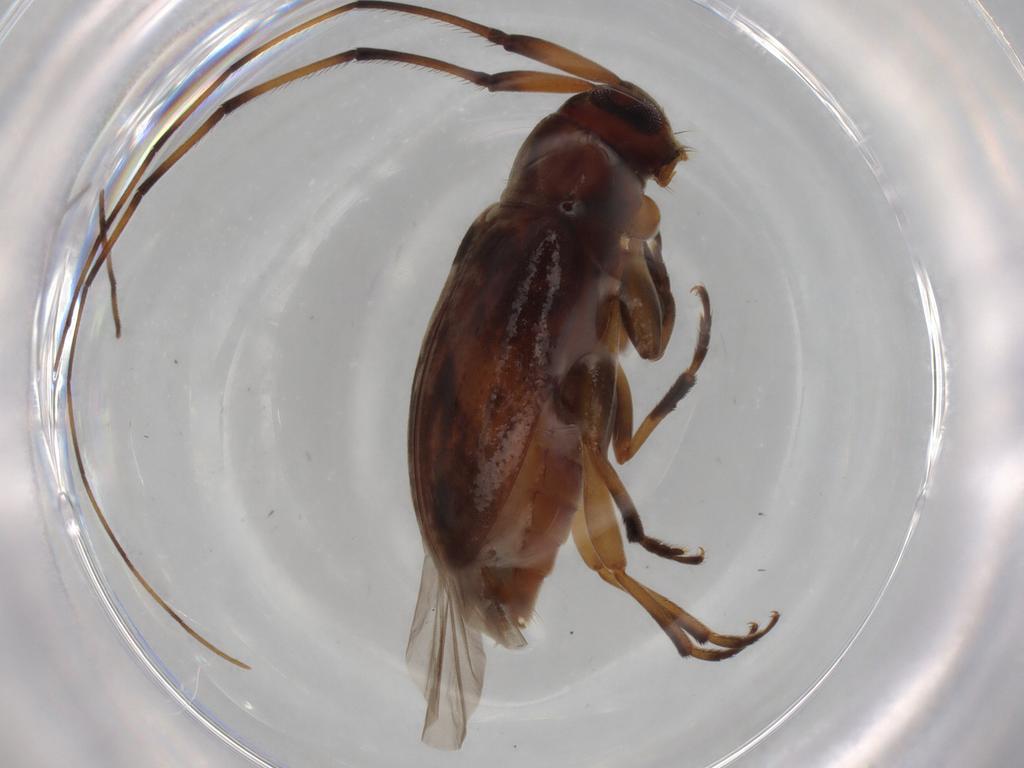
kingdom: Animalia
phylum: Arthropoda
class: Insecta
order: Coleoptera
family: Cerambycidae
